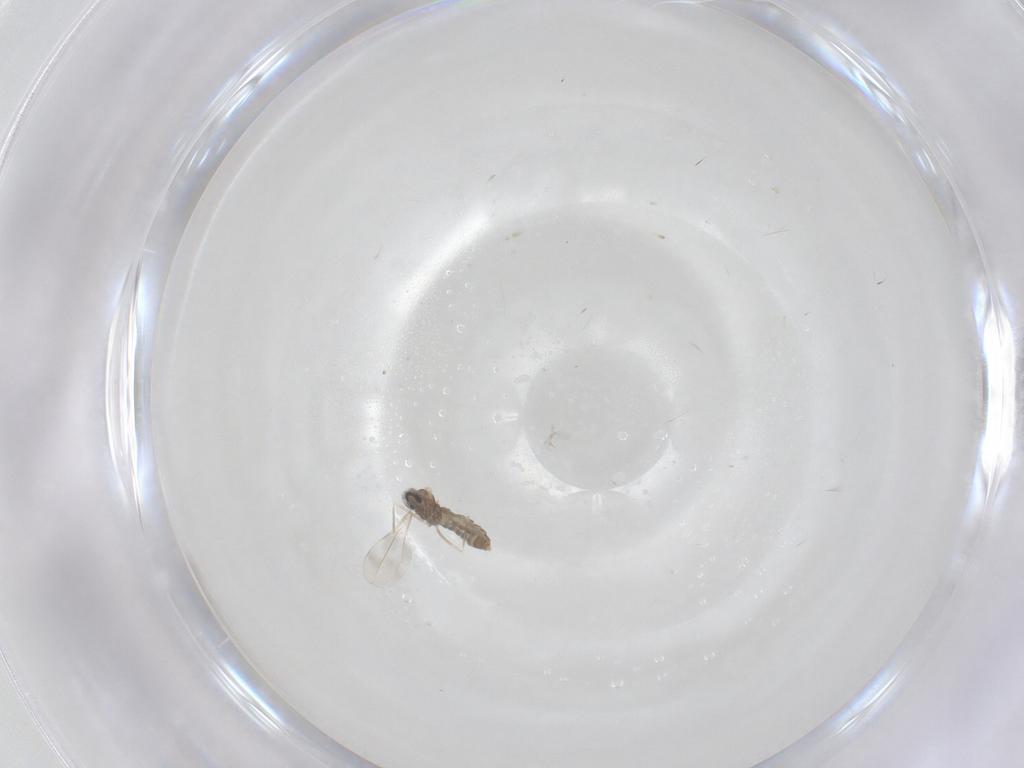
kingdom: Animalia
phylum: Arthropoda
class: Insecta
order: Diptera
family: Cecidomyiidae
